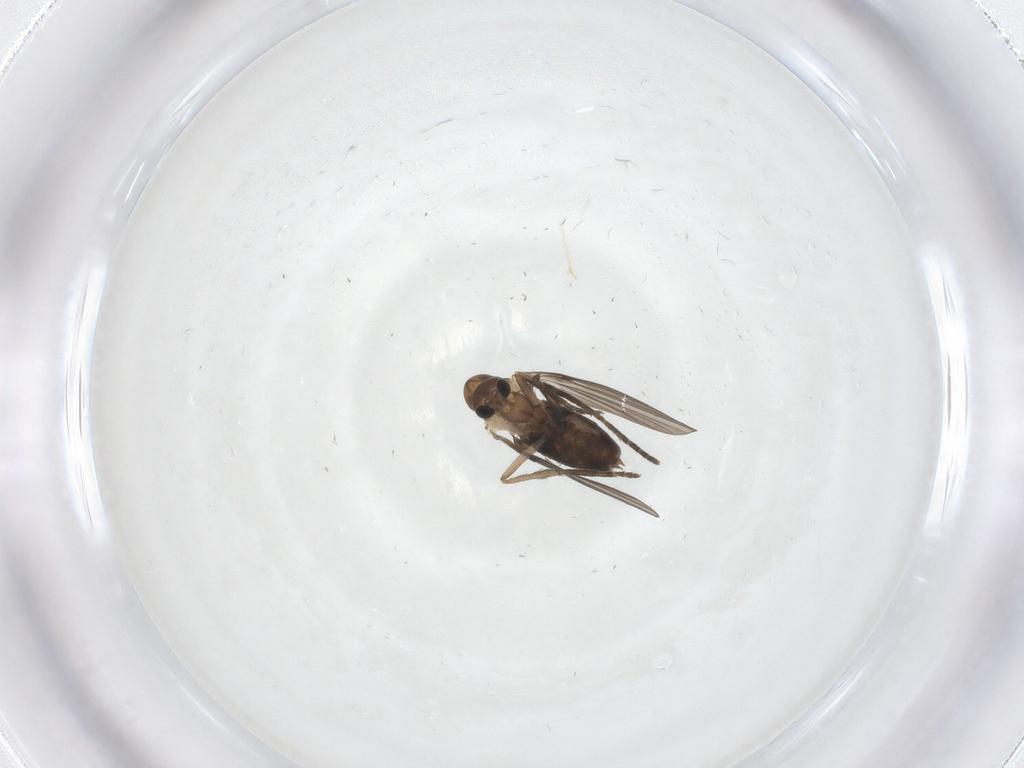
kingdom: Animalia
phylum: Arthropoda
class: Insecta
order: Diptera
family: Psychodidae
